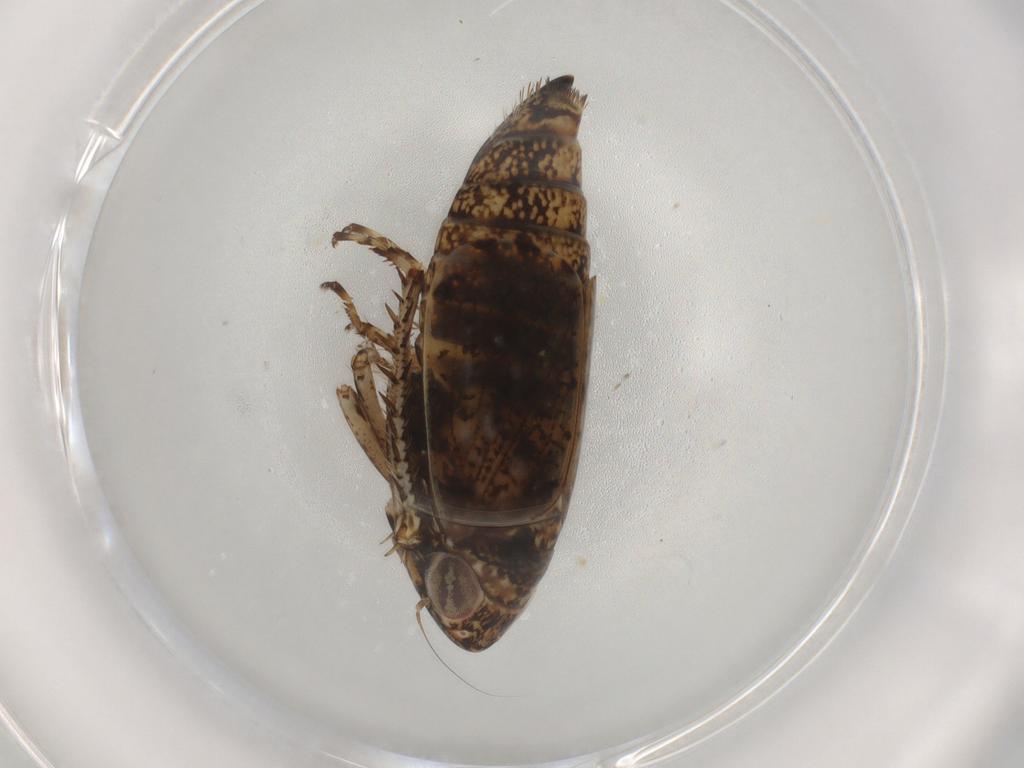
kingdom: Animalia
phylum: Arthropoda
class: Insecta
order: Hemiptera
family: Cicadellidae
